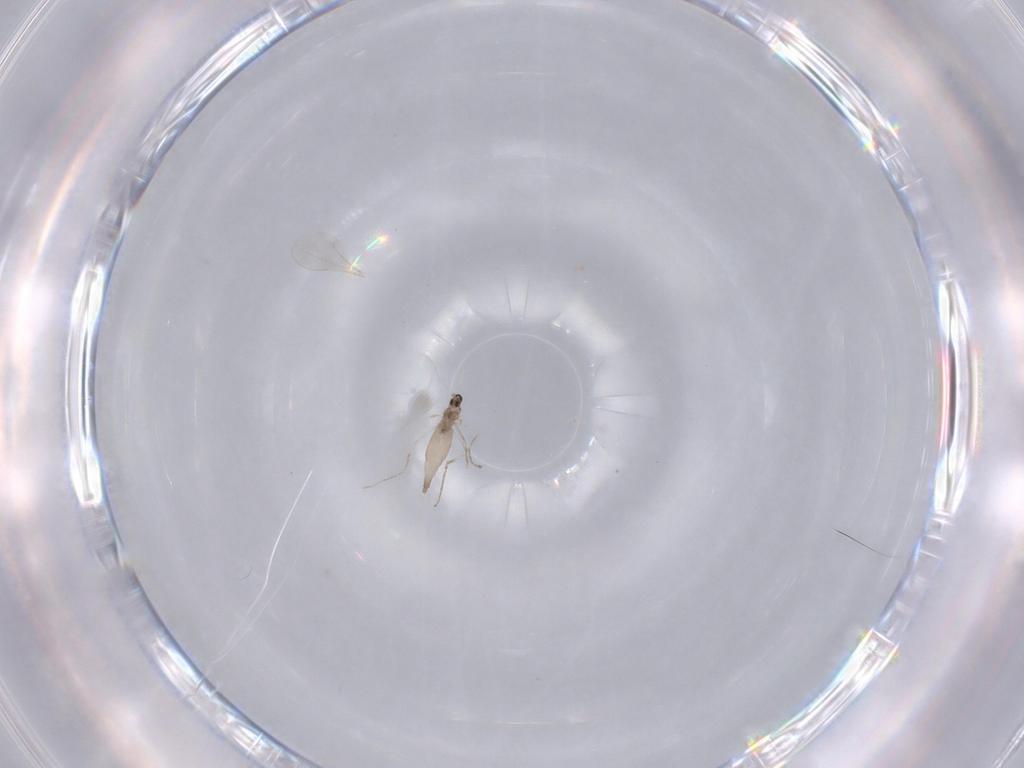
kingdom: Animalia
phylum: Arthropoda
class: Insecta
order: Diptera
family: Cecidomyiidae
